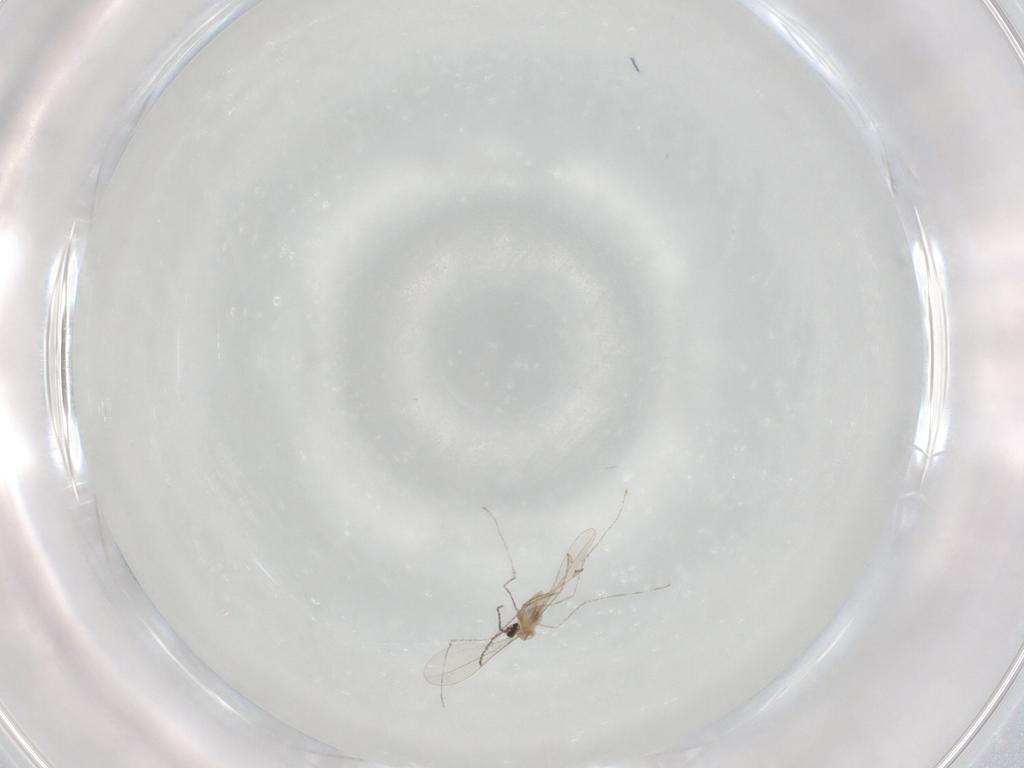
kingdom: Animalia
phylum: Arthropoda
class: Insecta
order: Diptera
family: Cecidomyiidae
